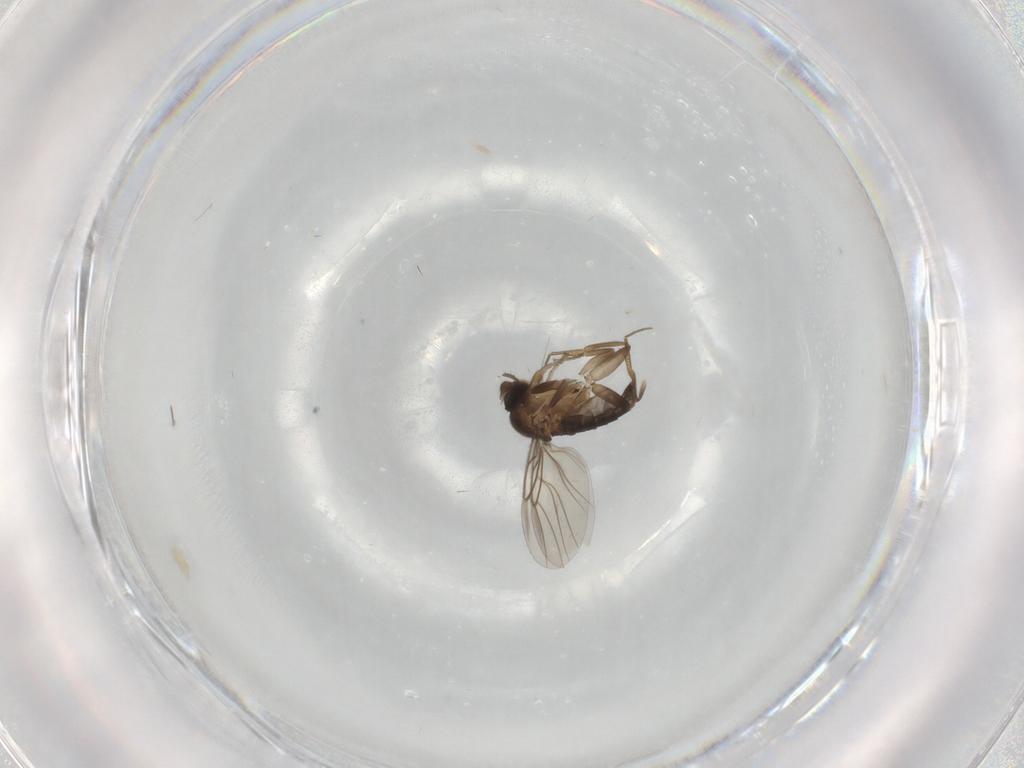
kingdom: Animalia
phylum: Arthropoda
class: Insecta
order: Diptera
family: Phoridae
